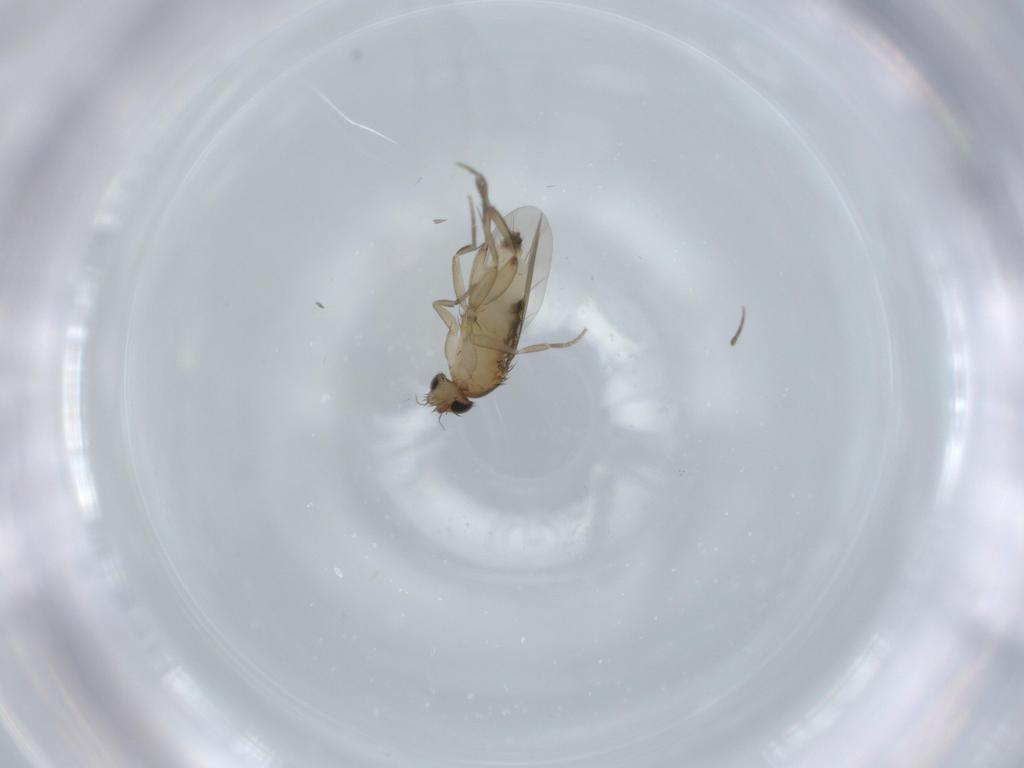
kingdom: Animalia
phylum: Arthropoda
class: Insecta
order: Diptera
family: Phoridae
